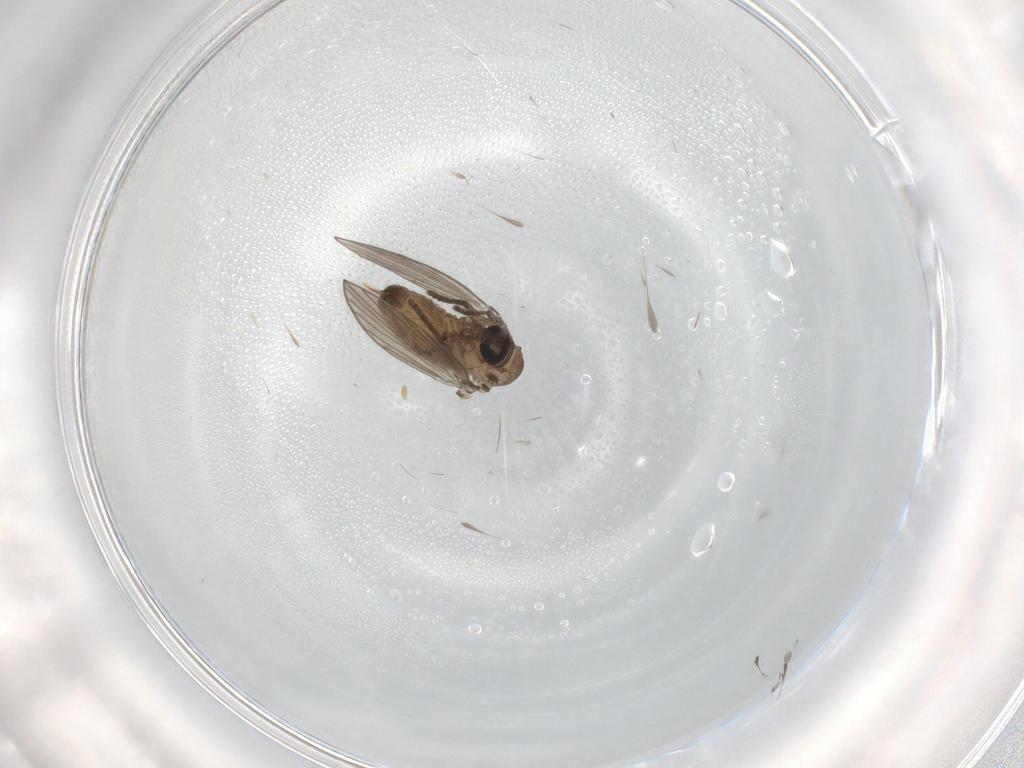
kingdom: Animalia
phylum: Arthropoda
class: Insecta
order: Diptera
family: Psychodidae
